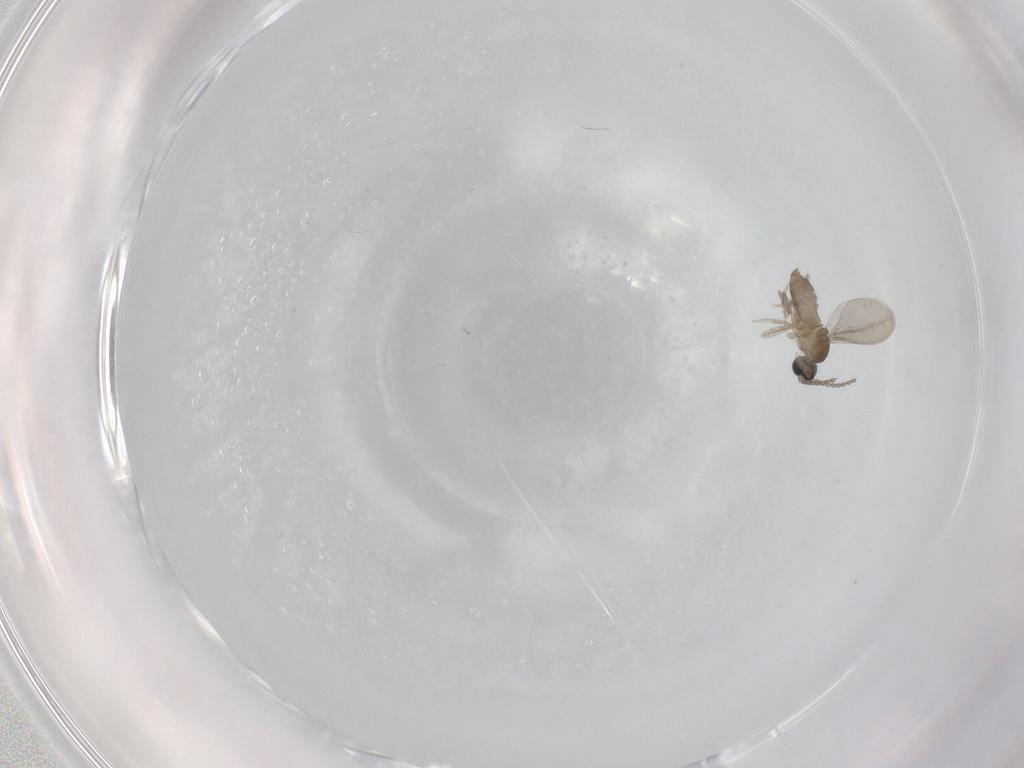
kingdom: Animalia
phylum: Arthropoda
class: Insecta
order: Diptera
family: Cecidomyiidae
